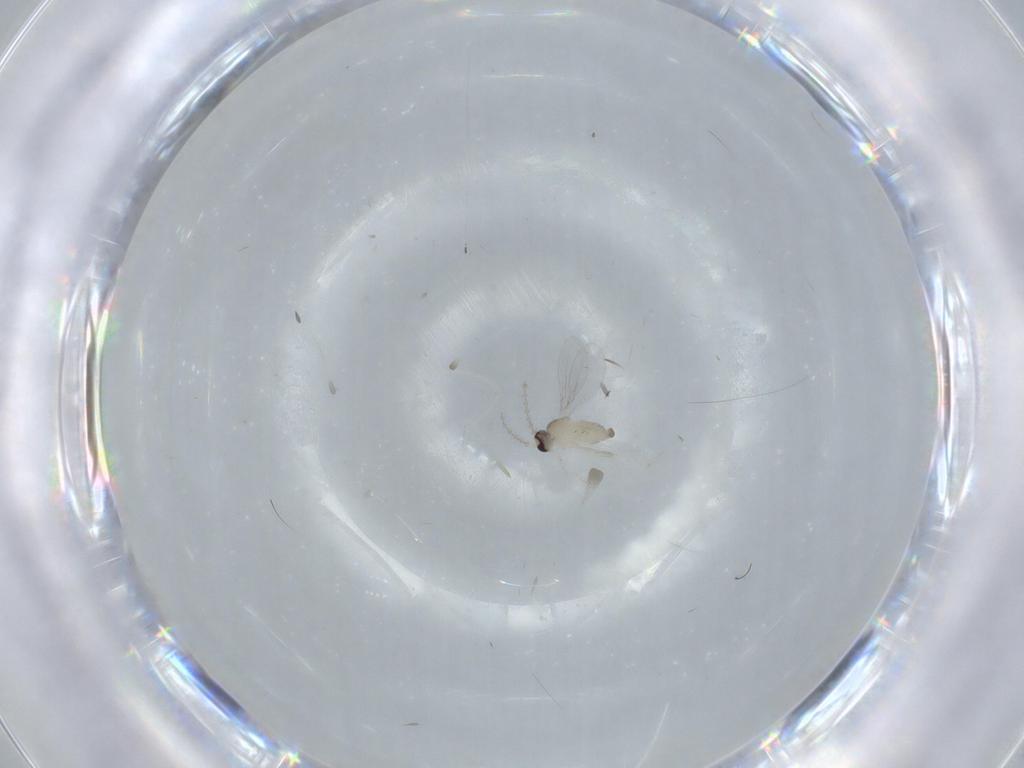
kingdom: Animalia
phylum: Arthropoda
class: Insecta
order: Diptera
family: Cecidomyiidae
